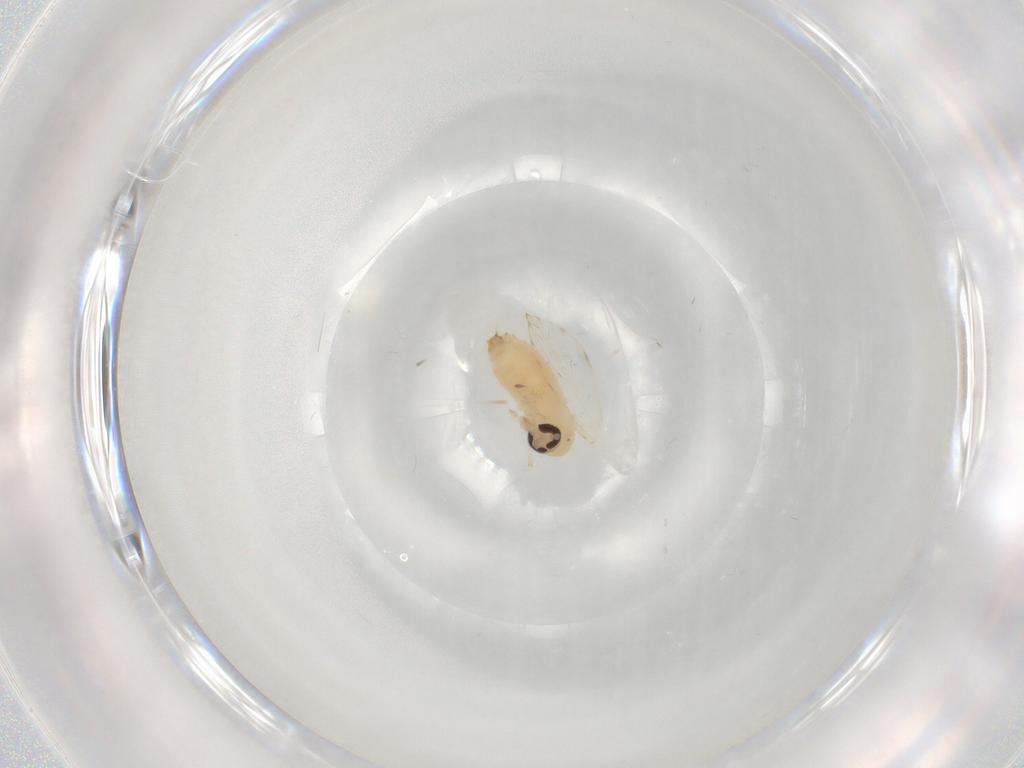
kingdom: Animalia
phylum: Arthropoda
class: Insecta
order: Diptera
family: Psychodidae
